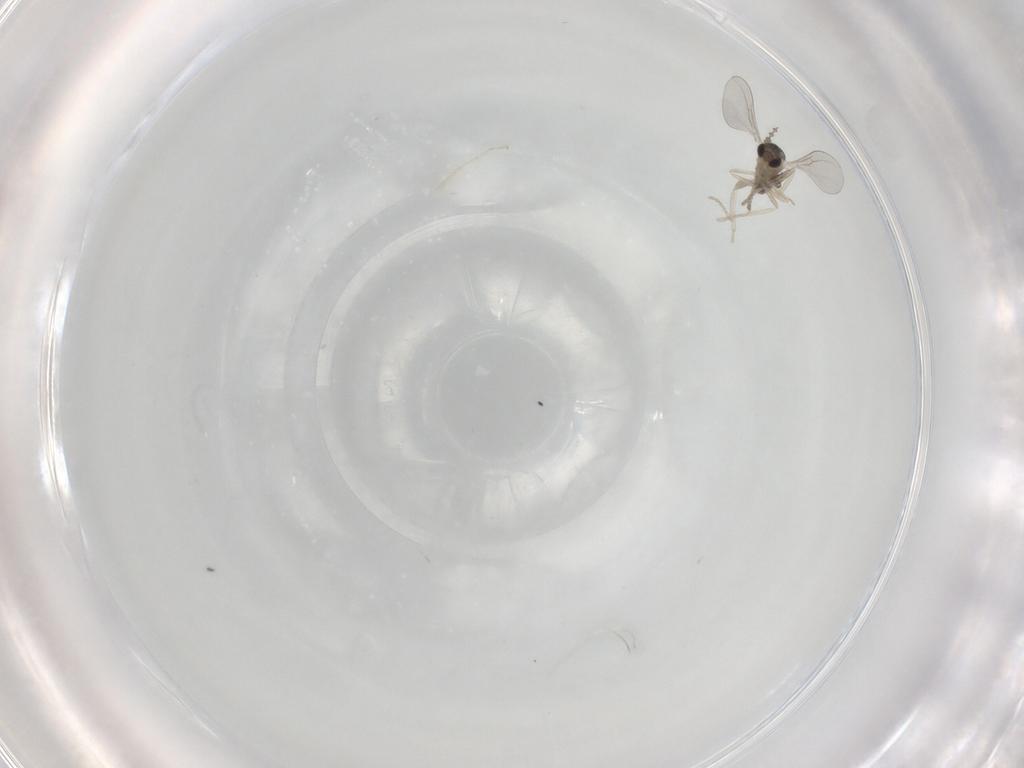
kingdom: Animalia
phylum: Arthropoda
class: Insecta
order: Diptera
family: Cecidomyiidae
